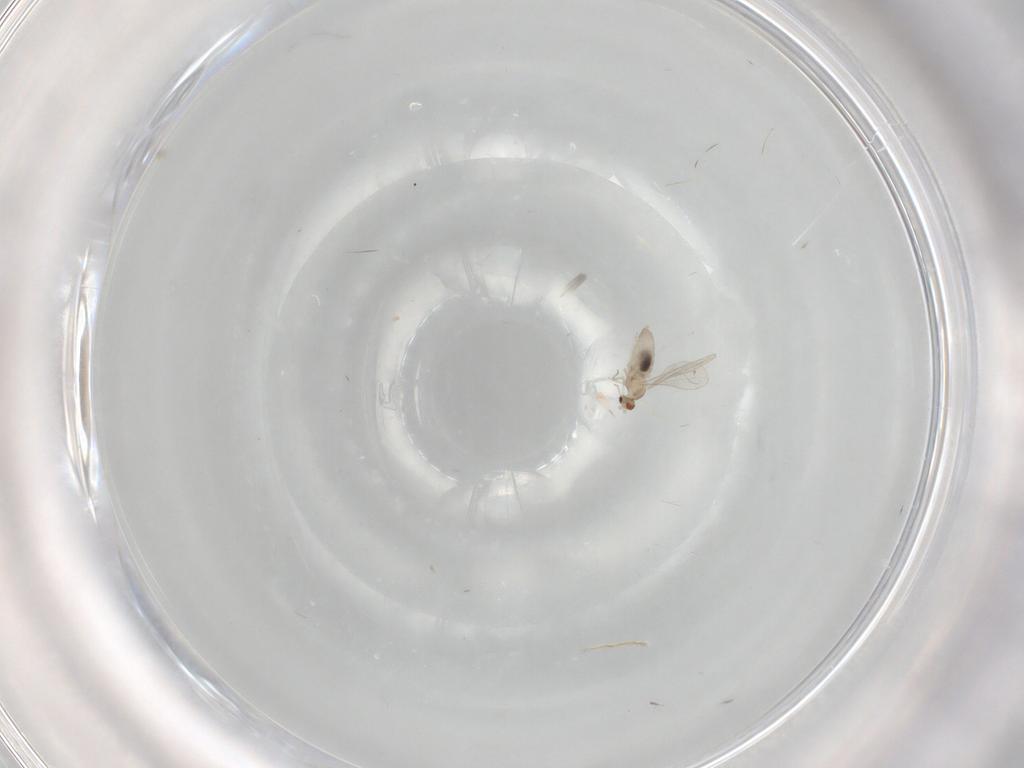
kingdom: Animalia
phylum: Arthropoda
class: Insecta
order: Diptera
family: Cecidomyiidae
